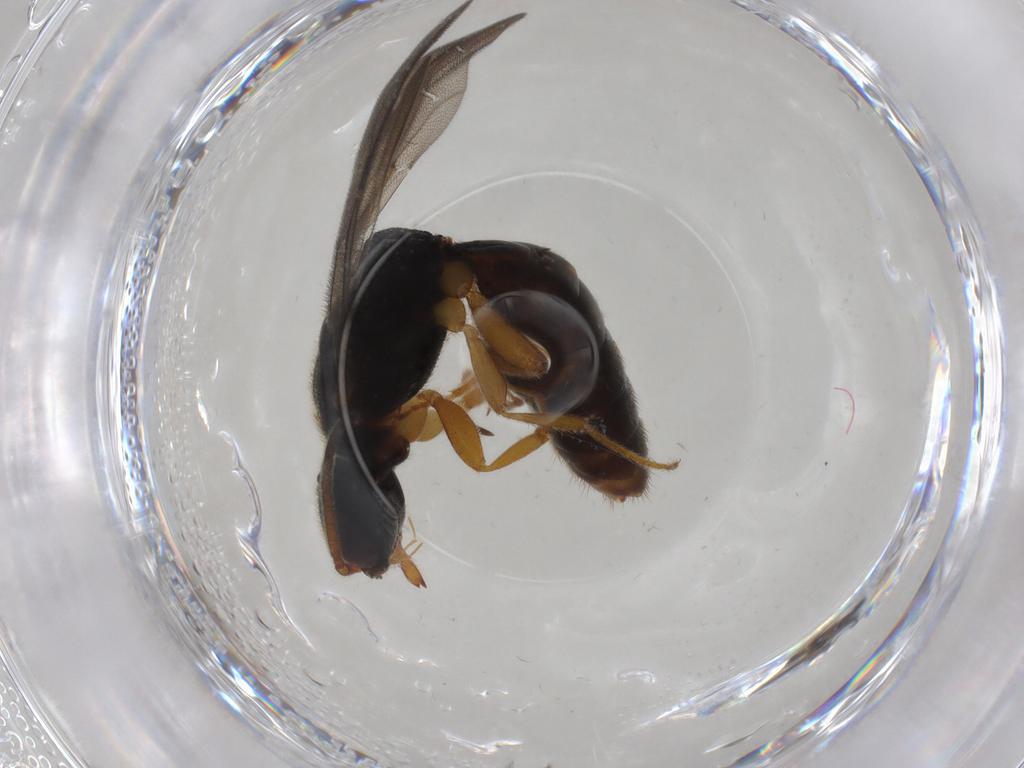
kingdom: Animalia
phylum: Arthropoda
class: Insecta
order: Hymenoptera
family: Bethylidae
